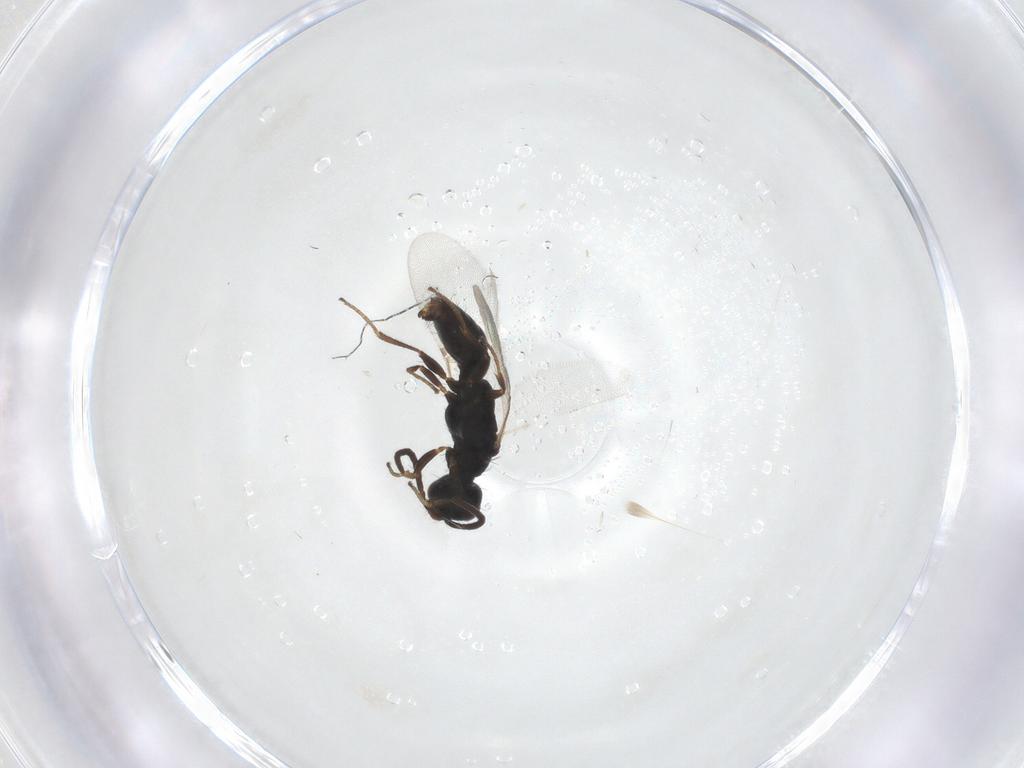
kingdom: Animalia
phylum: Arthropoda
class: Insecta
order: Hymenoptera
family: Bethylidae
